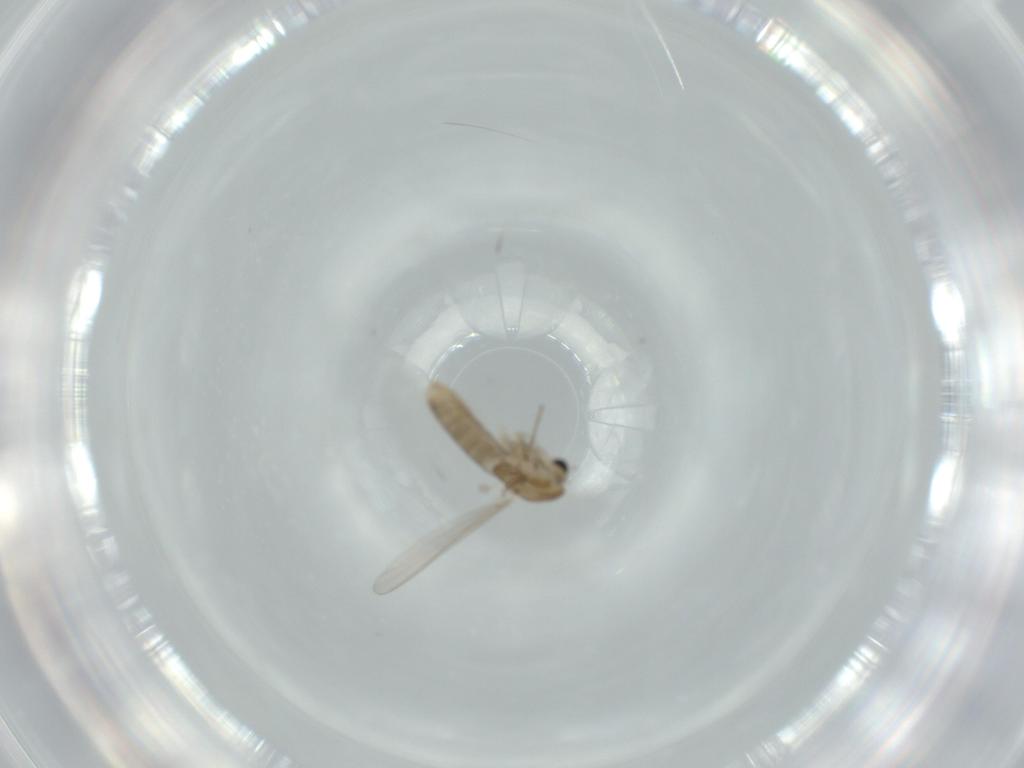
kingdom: Animalia
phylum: Arthropoda
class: Insecta
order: Diptera
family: Chironomidae
